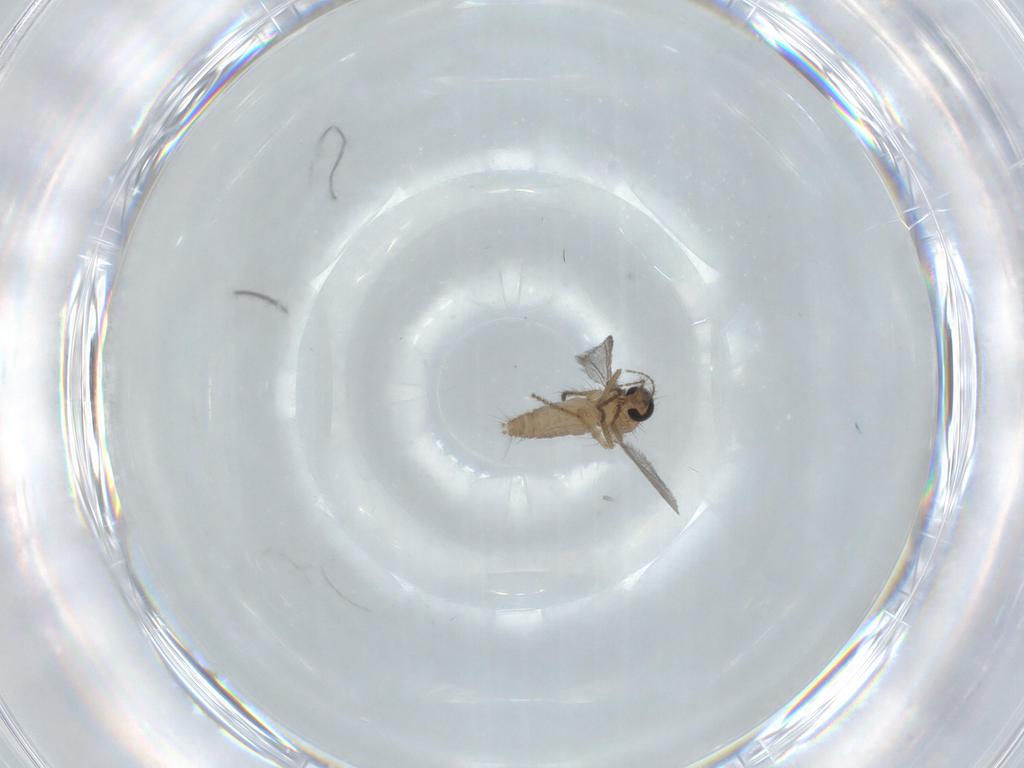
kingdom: Animalia
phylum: Arthropoda
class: Insecta
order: Diptera
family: Ceratopogonidae
